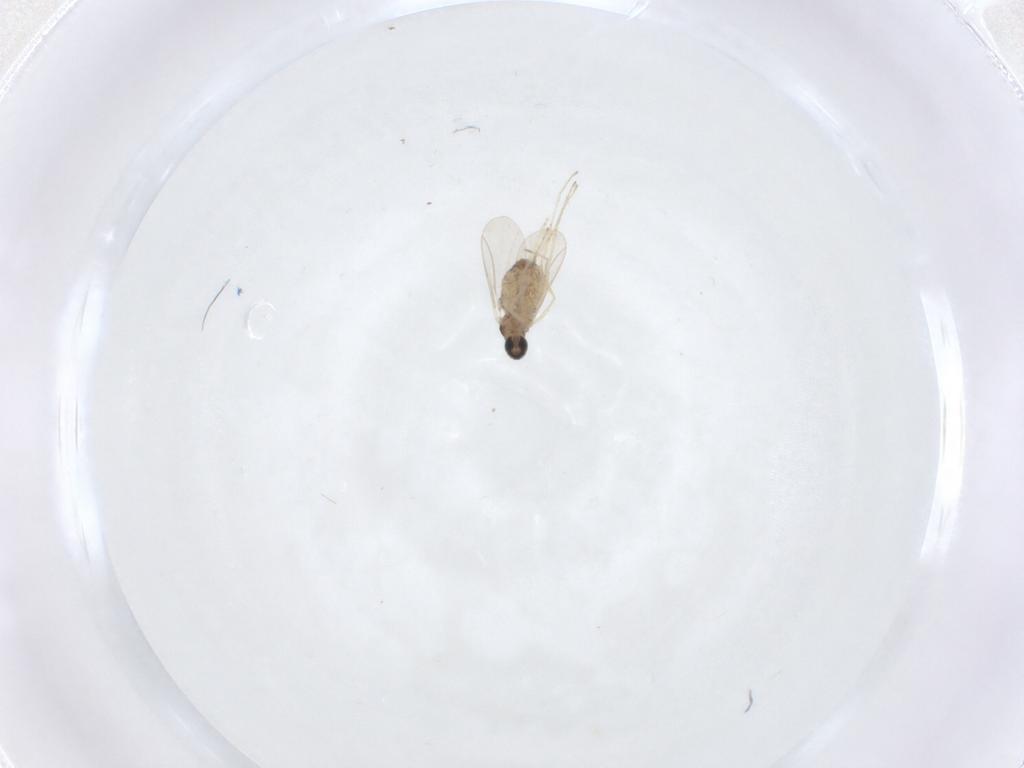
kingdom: Animalia
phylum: Arthropoda
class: Insecta
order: Diptera
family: Cecidomyiidae
